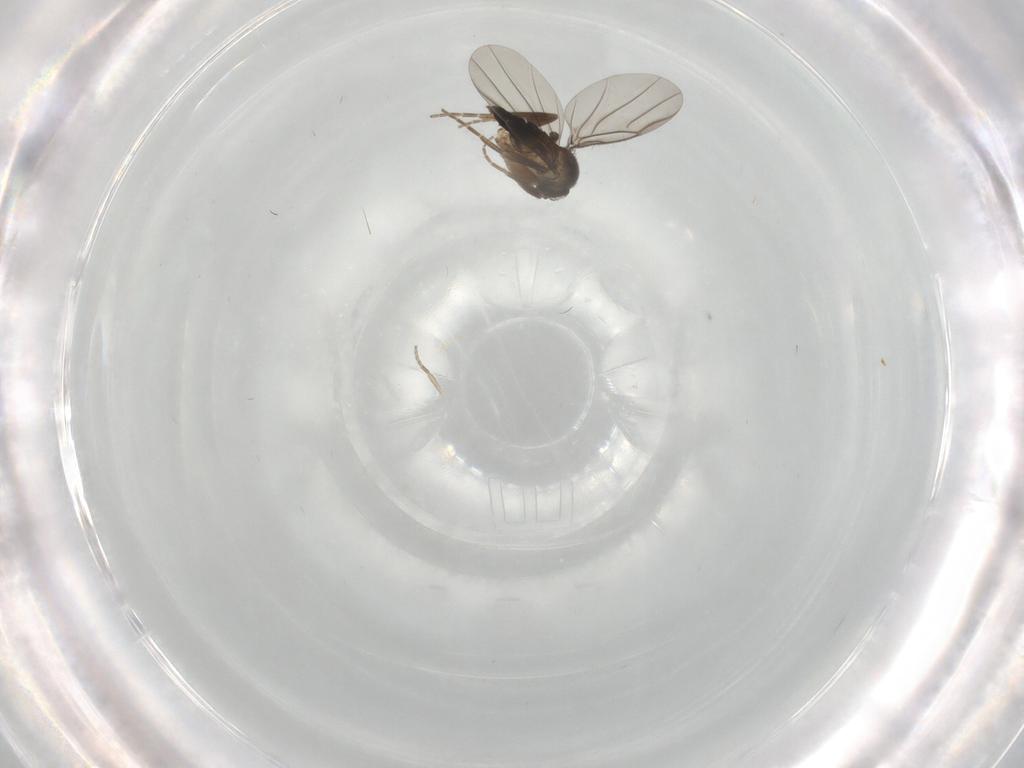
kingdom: Animalia
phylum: Arthropoda
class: Insecta
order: Diptera
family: Phoridae
